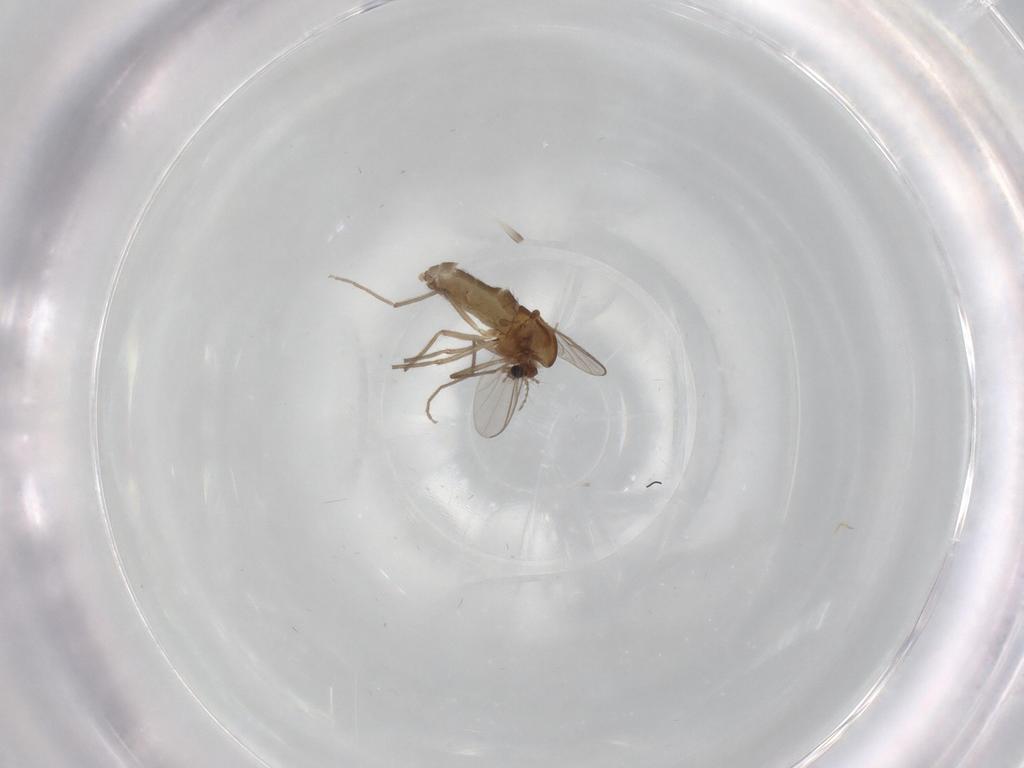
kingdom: Animalia
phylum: Arthropoda
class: Insecta
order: Diptera
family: Chironomidae
